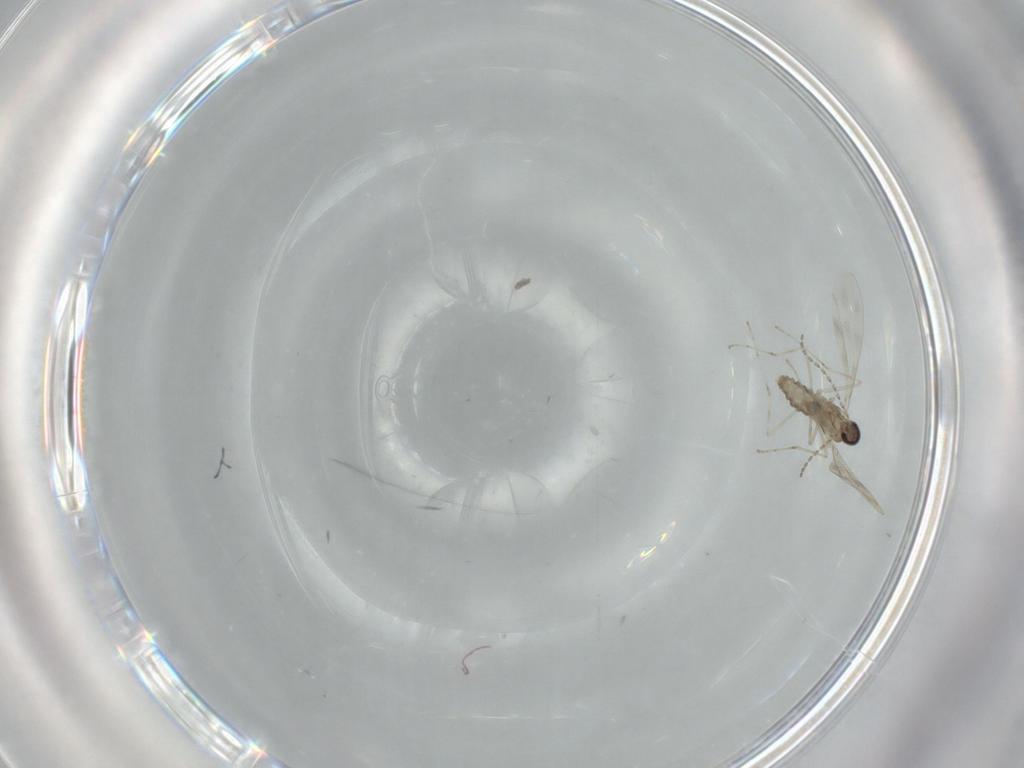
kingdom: Animalia
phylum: Arthropoda
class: Insecta
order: Diptera
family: Cecidomyiidae
